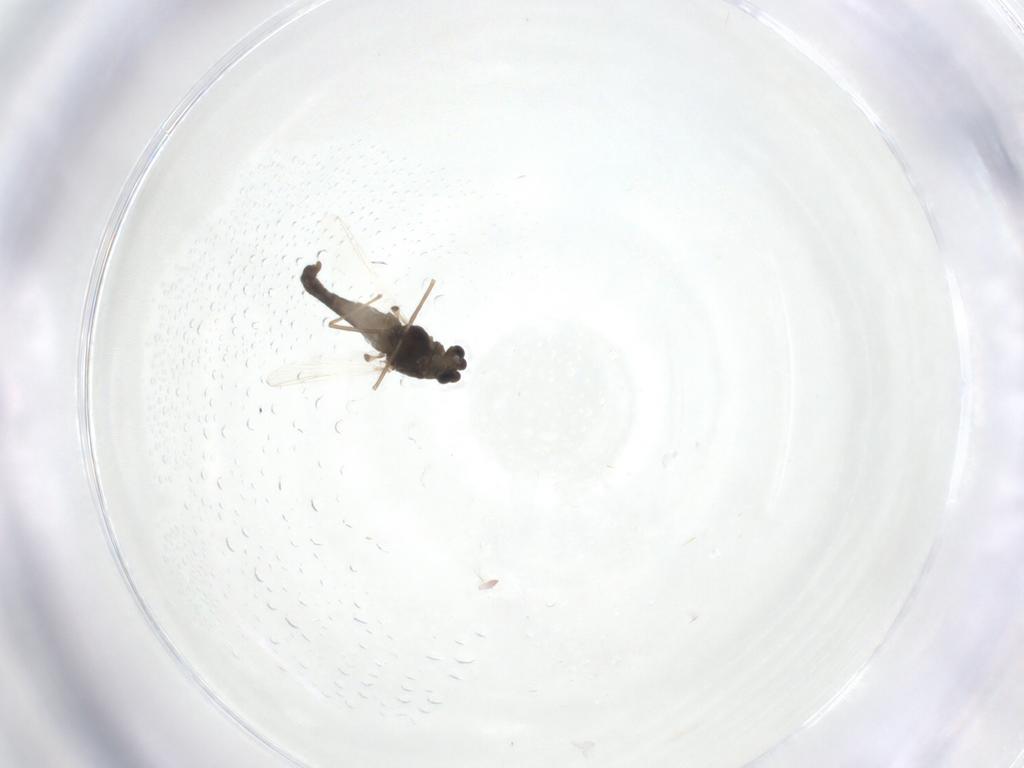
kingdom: Animalia
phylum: Arthropoda
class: Insecta
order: Diptera
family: Chironomidae
